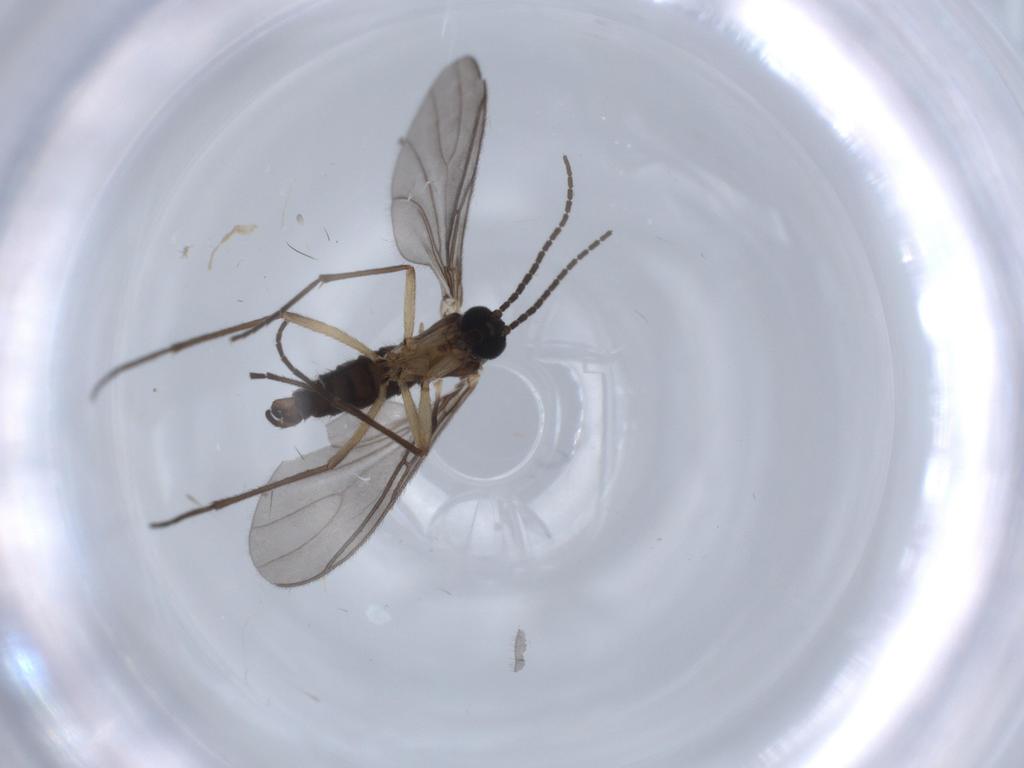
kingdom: Animalia
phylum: Arthropoda
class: Insecta
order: Diptera
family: Sciaridae
